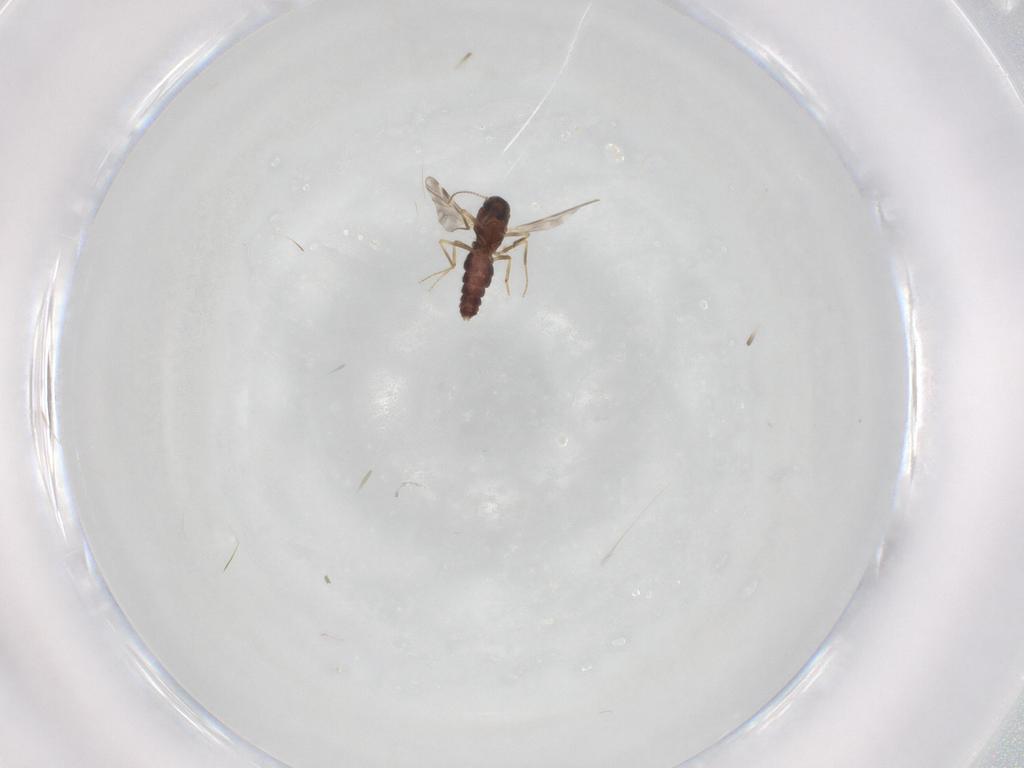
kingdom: Animalia
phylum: Arthropoda
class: Insecta
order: Diptera
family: Ceratopogonidae
